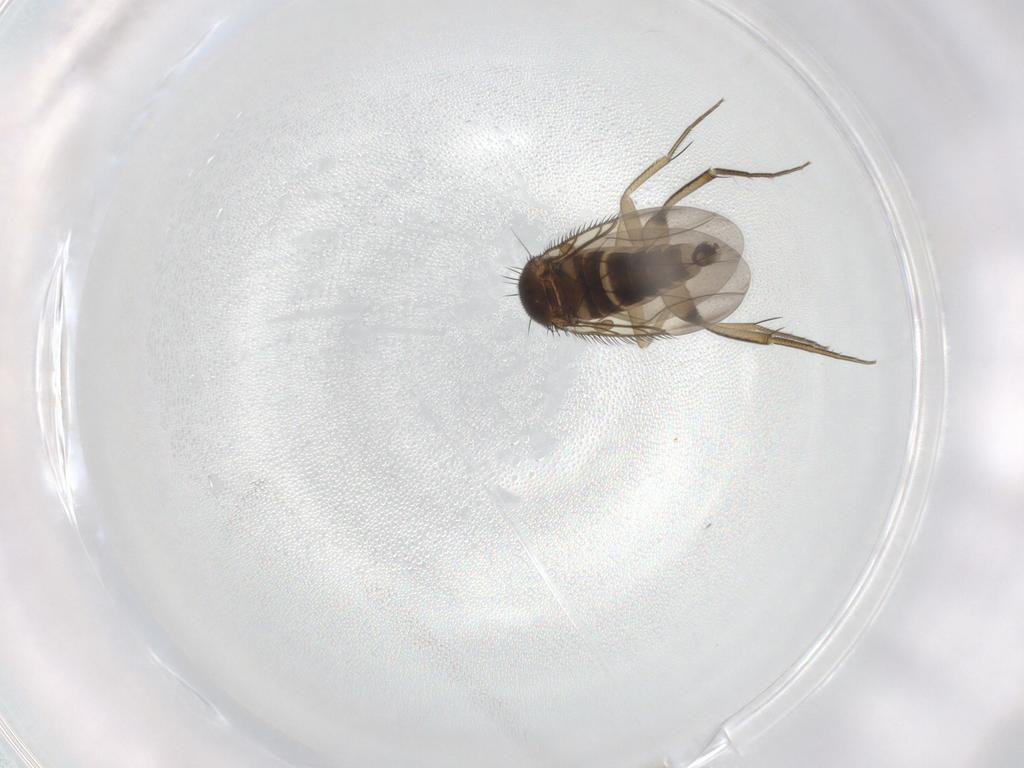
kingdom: Animalia
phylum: Arthropoda
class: Insecta
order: Diptera
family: Phoridae
